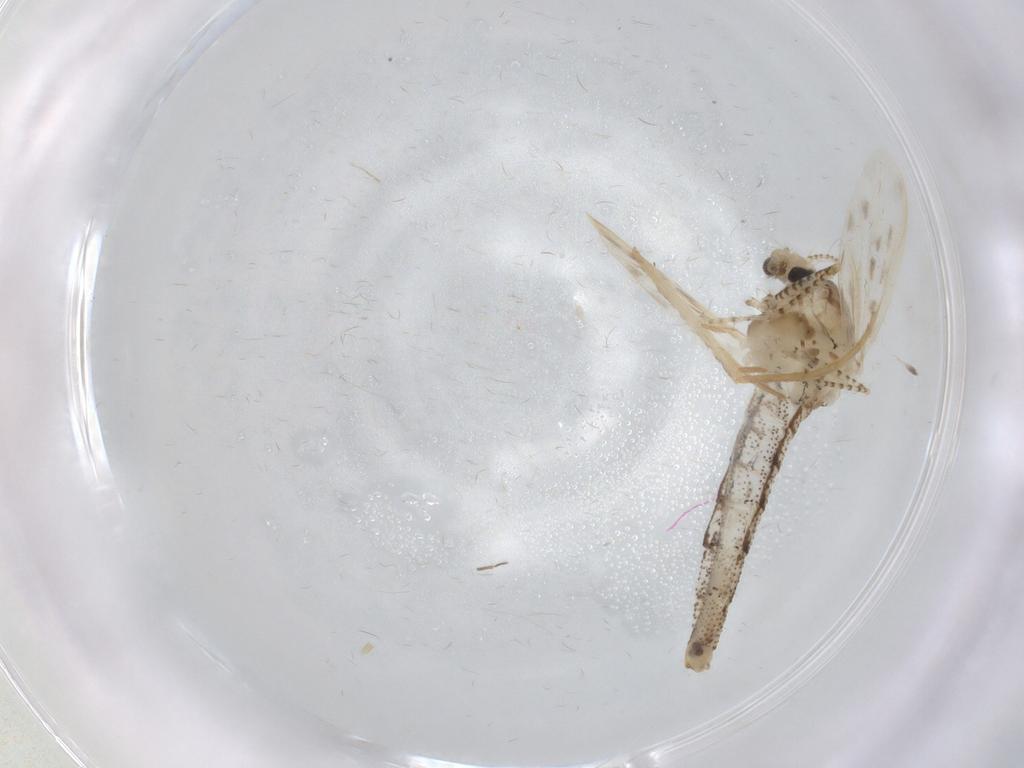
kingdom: Animalia
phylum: Arthropoda
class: Insecta
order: Diptera
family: Chaoboridae
